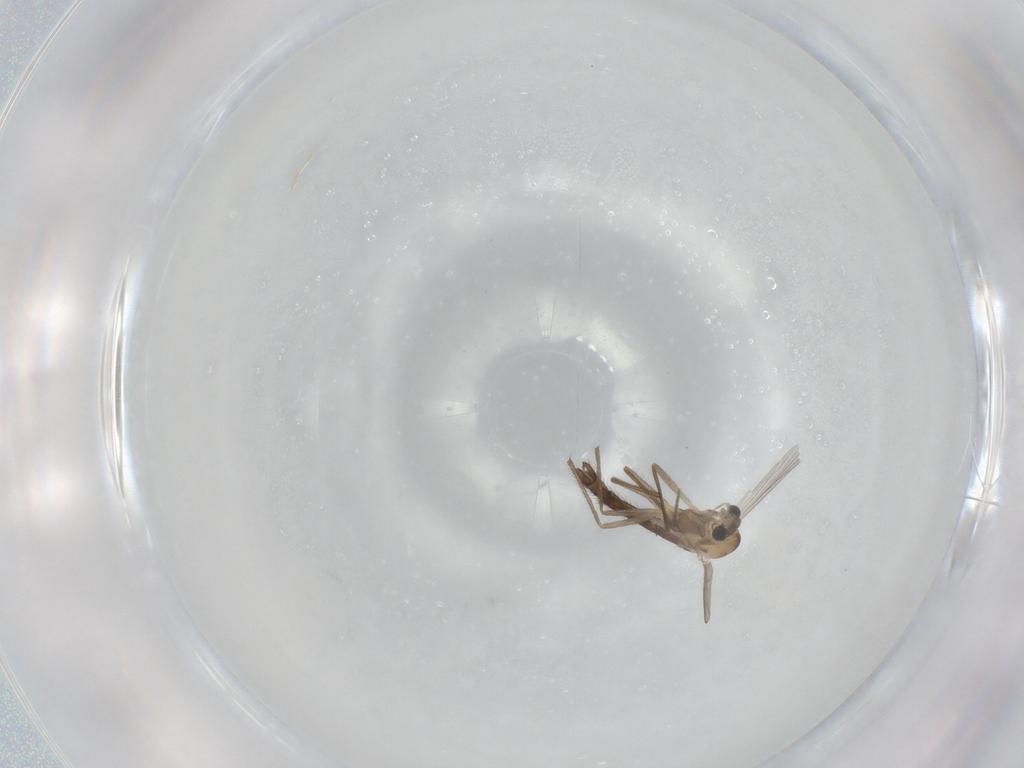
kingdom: Animalia
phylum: Arthropoda
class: Insecta
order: Diptera
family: Chironomidae
